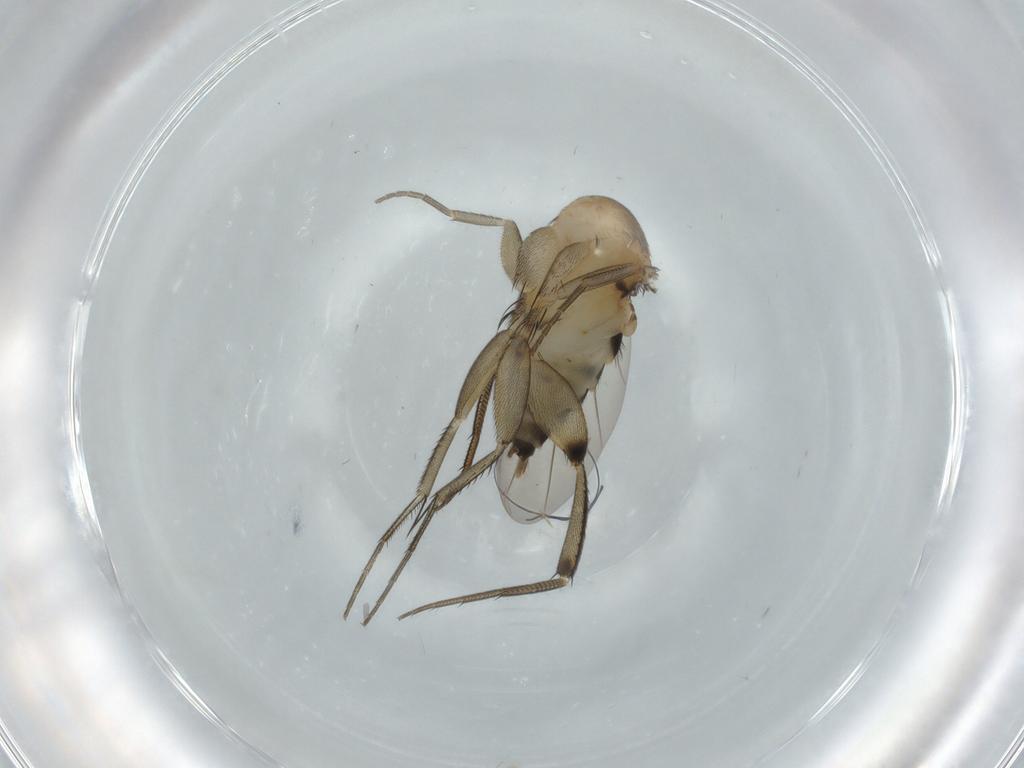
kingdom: Animalia
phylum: Arthropoda
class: Insecta
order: Diptera
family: Phoridae
